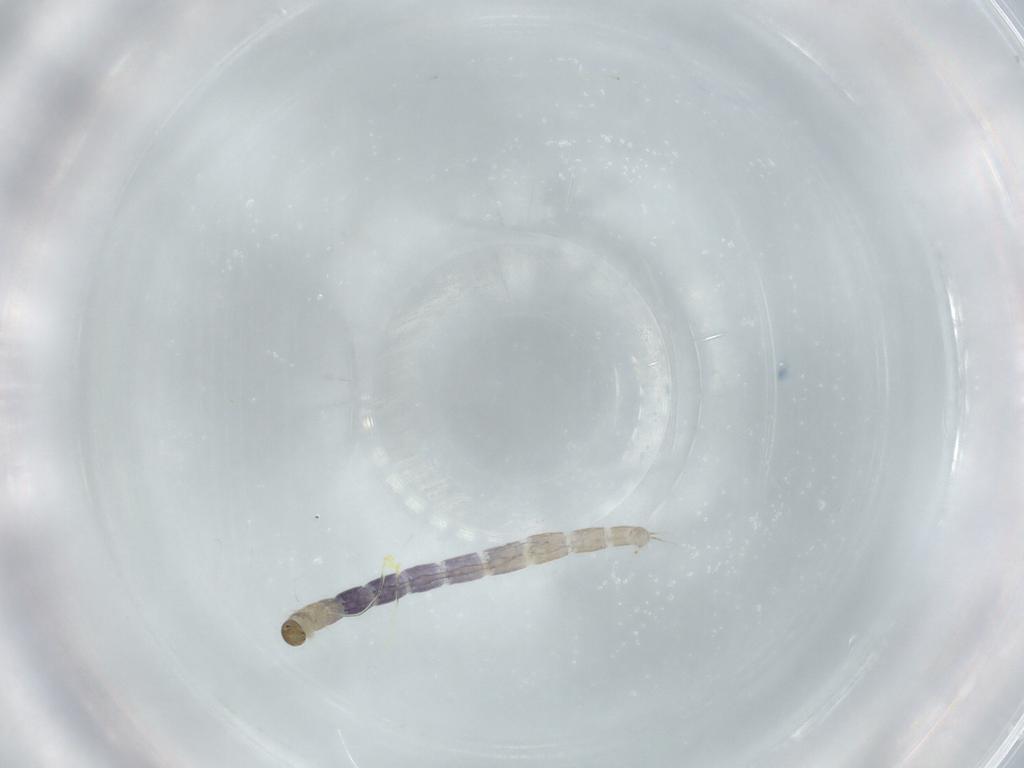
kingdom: Animalia
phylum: Arthropoda
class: Insecta
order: Diptera
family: Chironomidae
